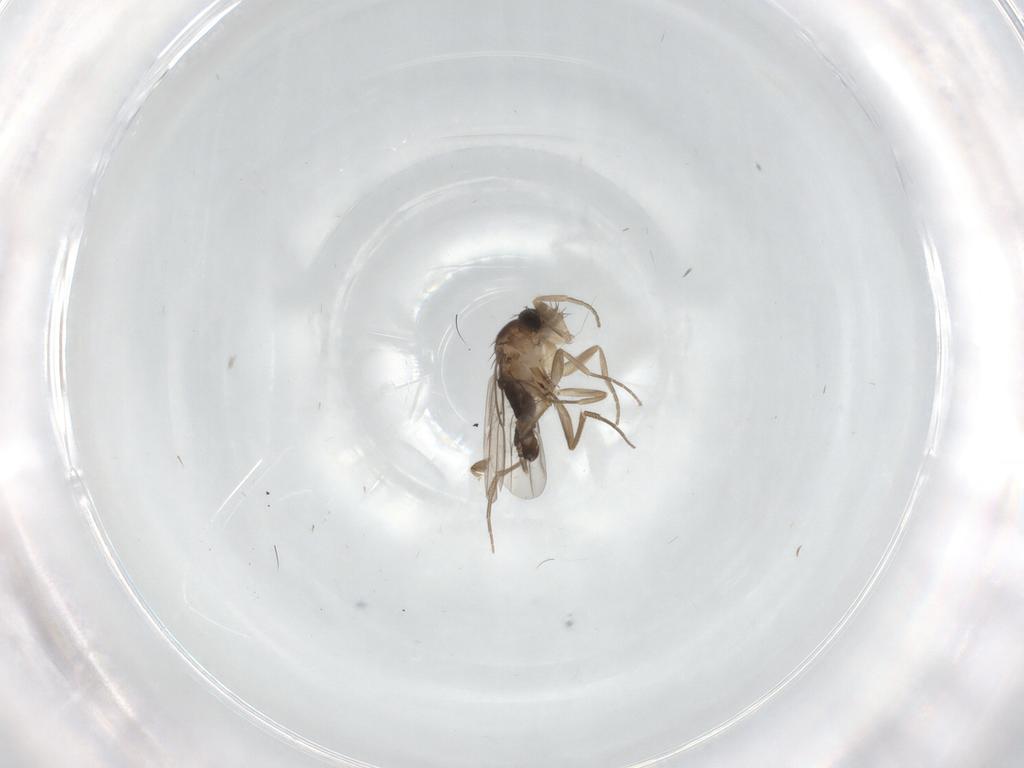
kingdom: Animalia
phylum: Arthropoda
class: Insecta
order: Diptera
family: Phoridae
